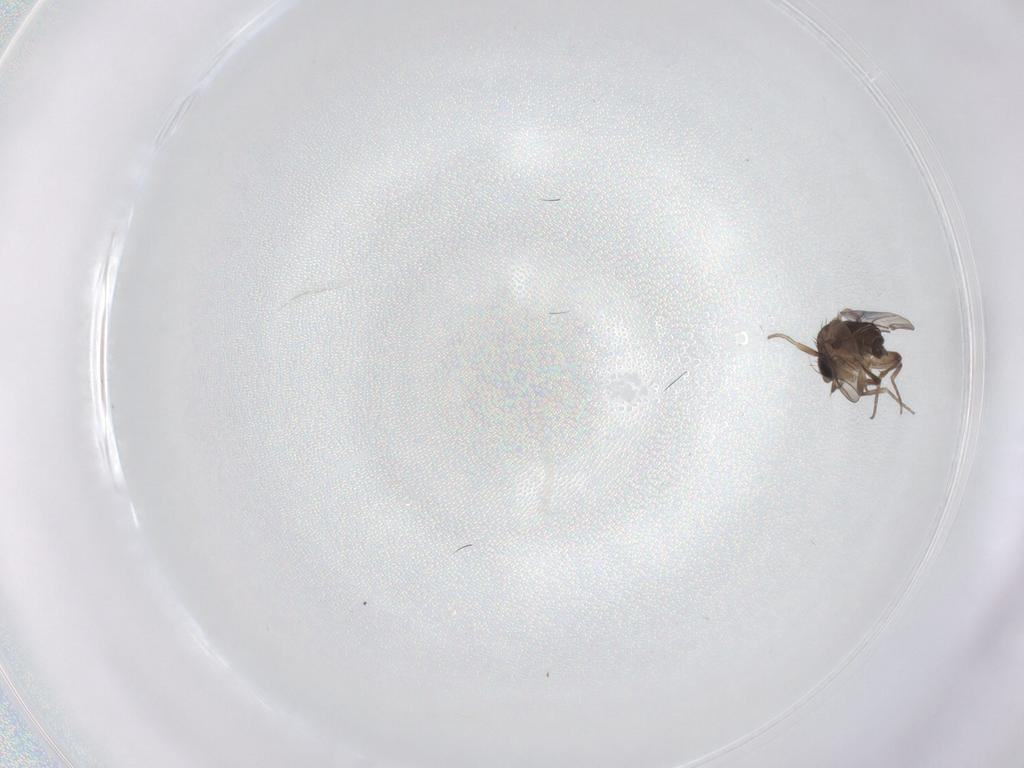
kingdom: Animalia
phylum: Arthropoda
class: Insecta
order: Diptera
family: Phoridae
